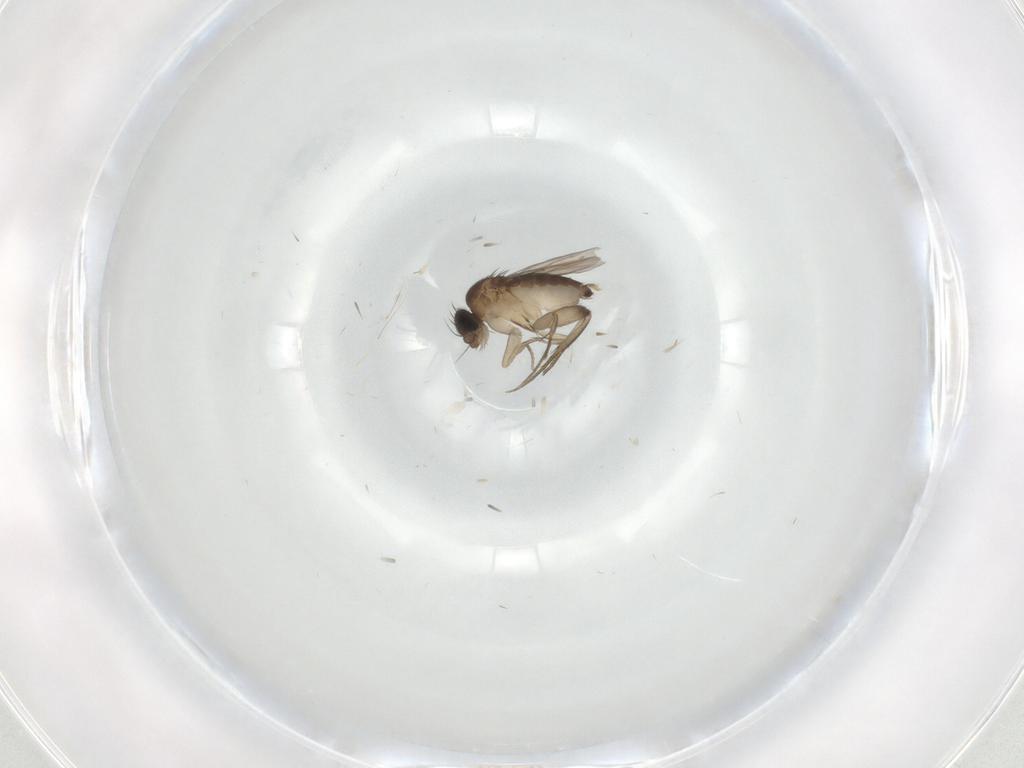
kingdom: Animalia
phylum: Arthropoda
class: Insecta
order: Diptera
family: Phoridae
